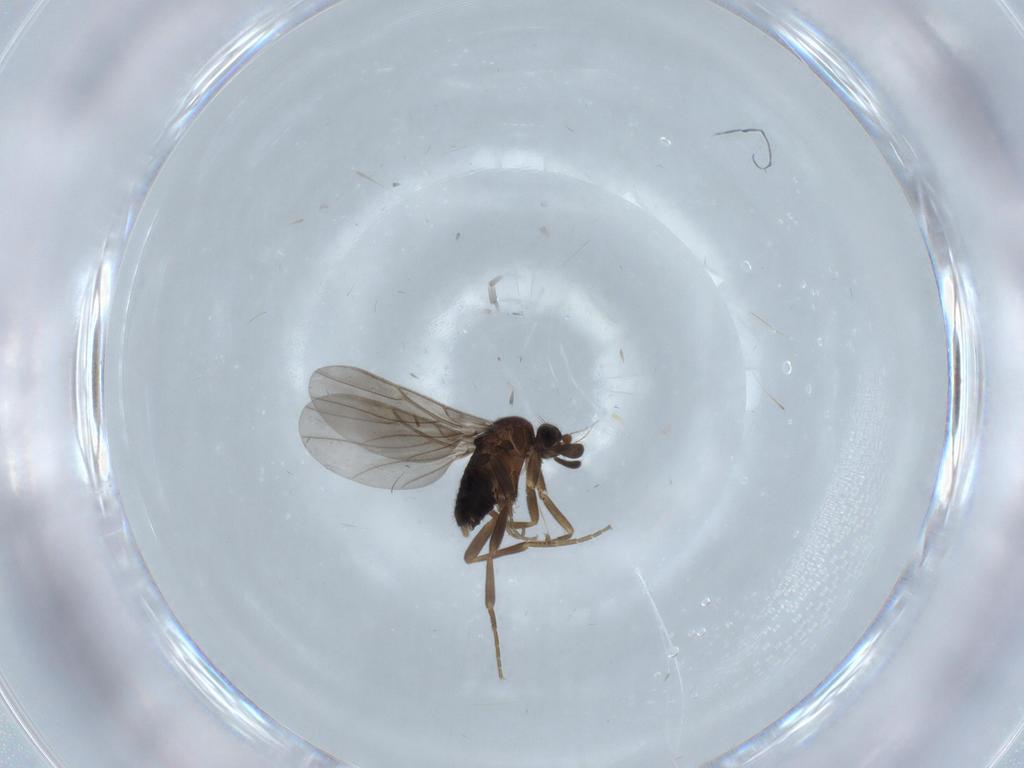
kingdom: Animalia
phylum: Arthropoda
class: Insecta
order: Diptera
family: Phoridae
